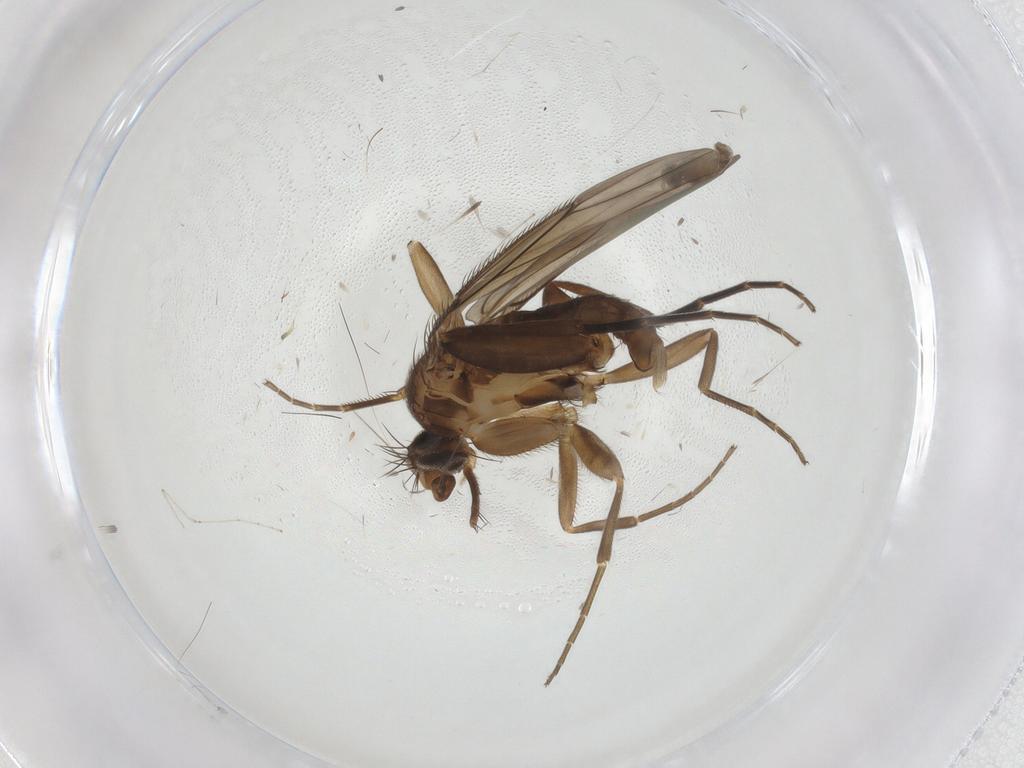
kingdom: Animalia
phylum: Arthropoda
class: Insecta
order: Diptera
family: Phoridae
